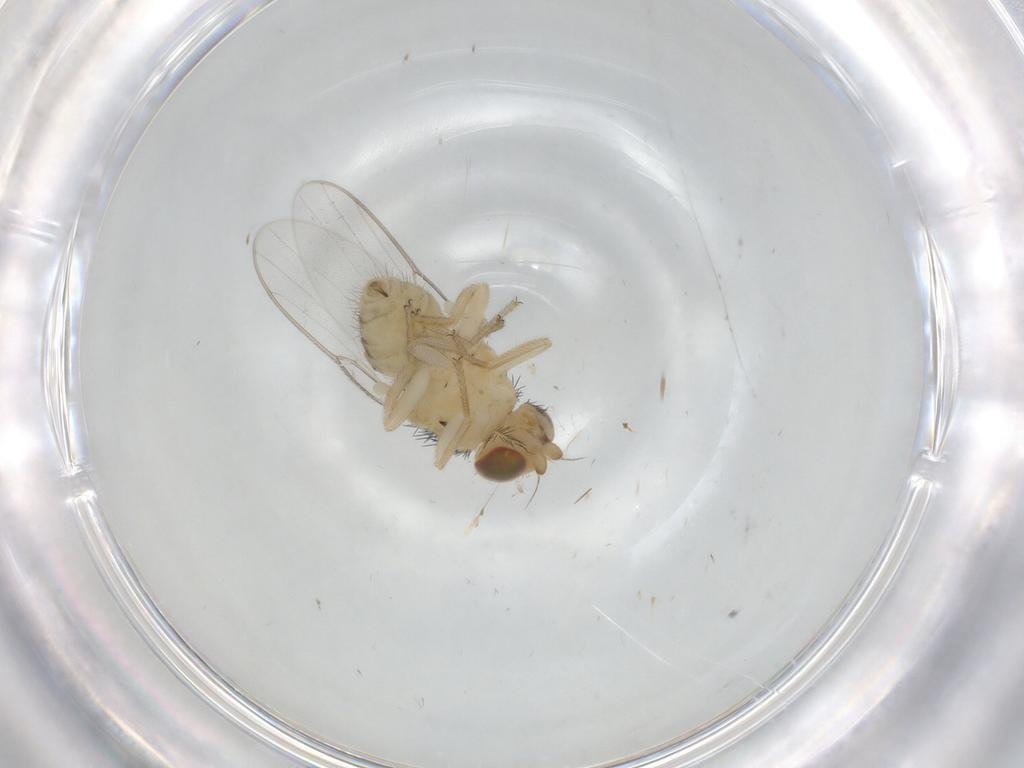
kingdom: Animalia
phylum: Arthropoda
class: Insecta
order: Diptera
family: Chloropidae
